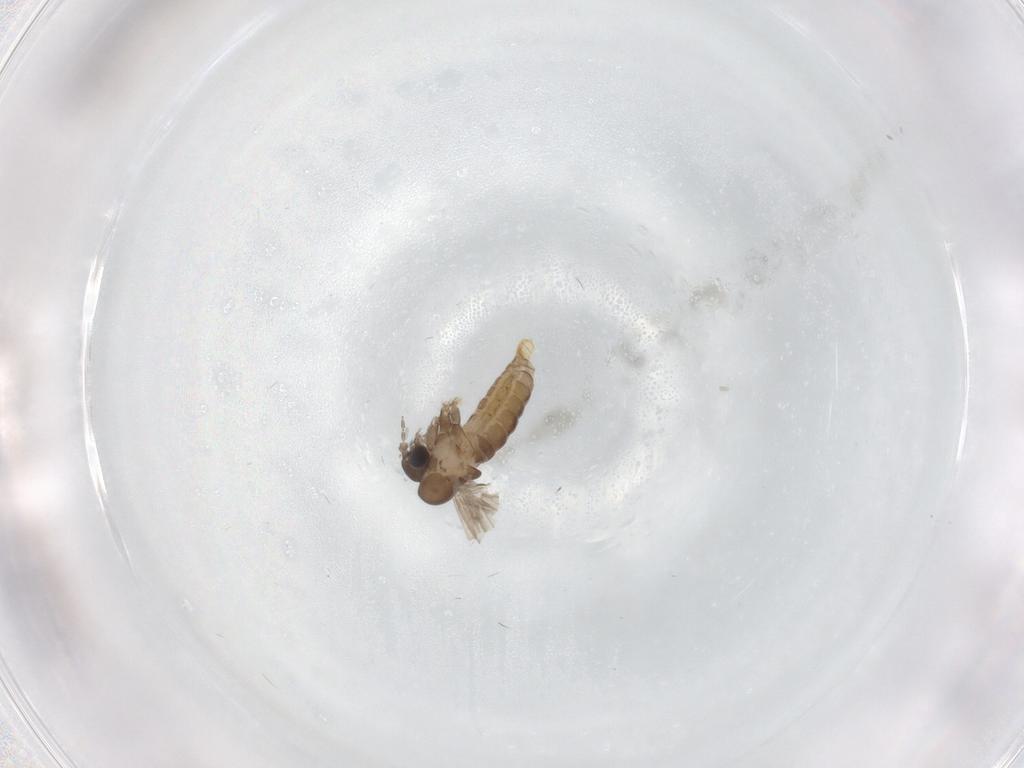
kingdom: Animalia
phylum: Arthropoda
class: Insecta
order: Diptera
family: Psychodidae
